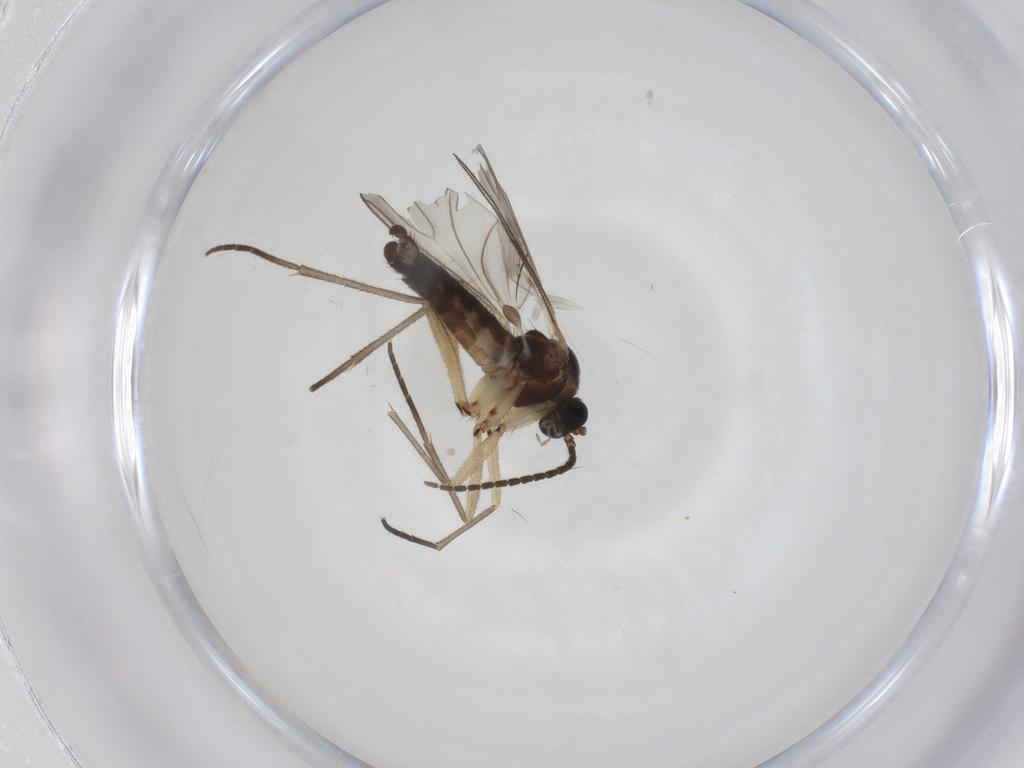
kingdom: Animalia
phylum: Arthropoda
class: Insecta
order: Diptera
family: Sciaridae
